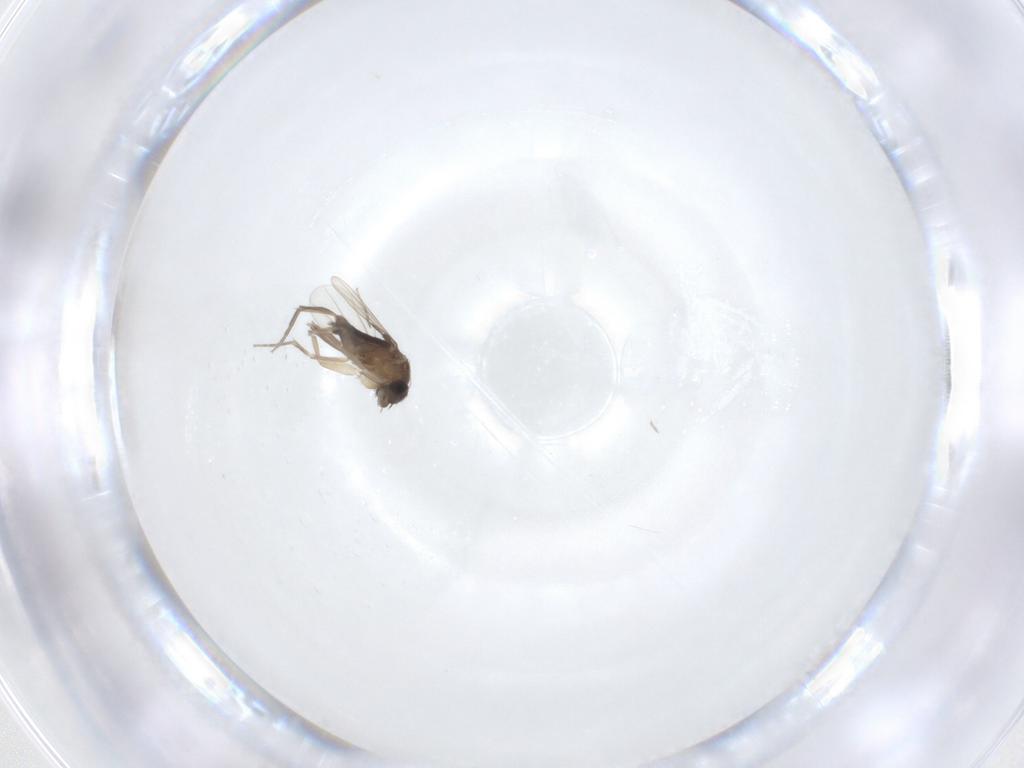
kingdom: Animalia
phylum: Arthropoda
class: Insecta
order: Diptera
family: Phoridae
